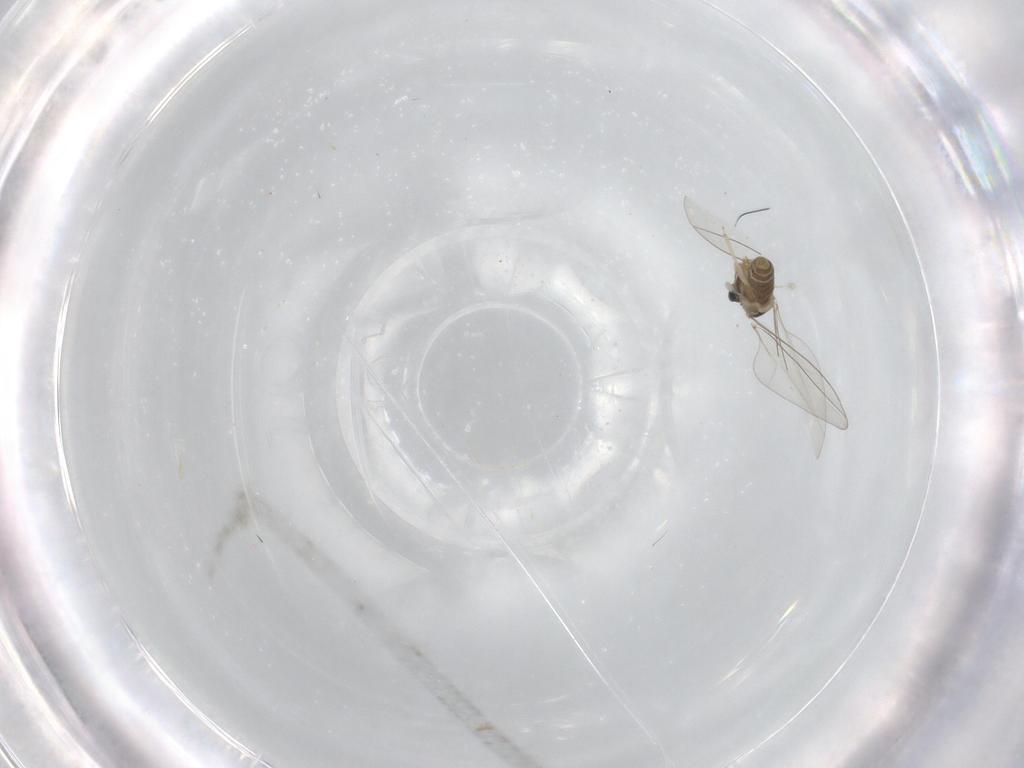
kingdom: Animalia
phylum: Arthropoda
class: Insecta
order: Diptera
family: Cecidomyiidae
